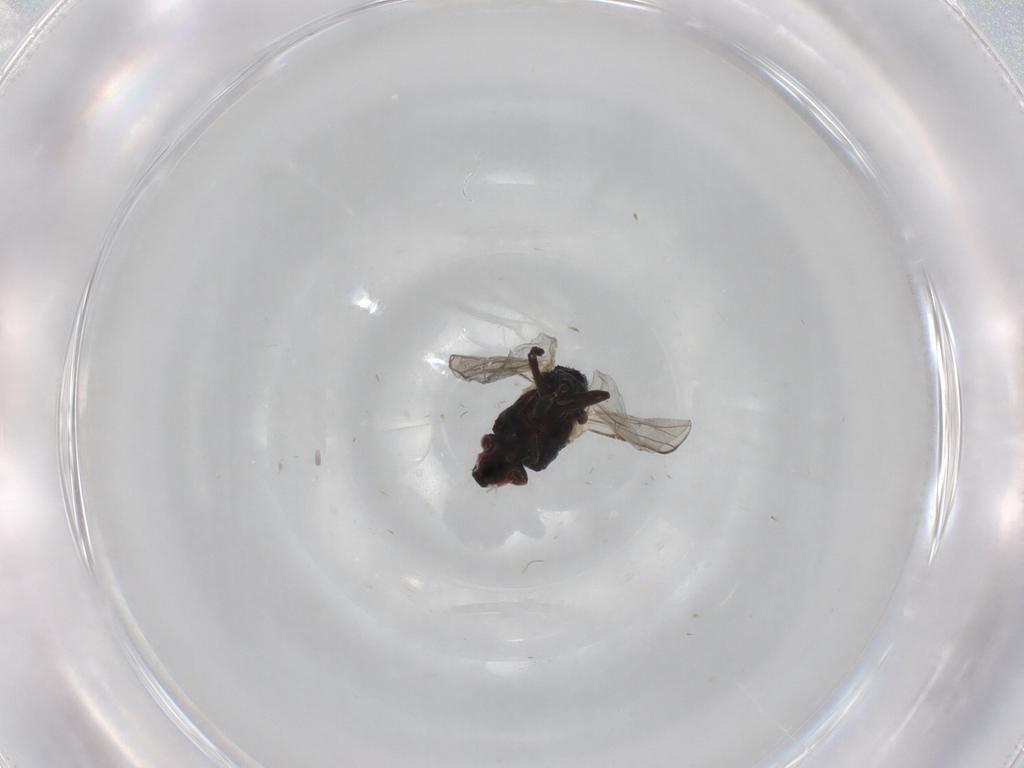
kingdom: Animalia
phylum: Arthropoda
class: Insecta
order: Diptera
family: Agromyzidae
